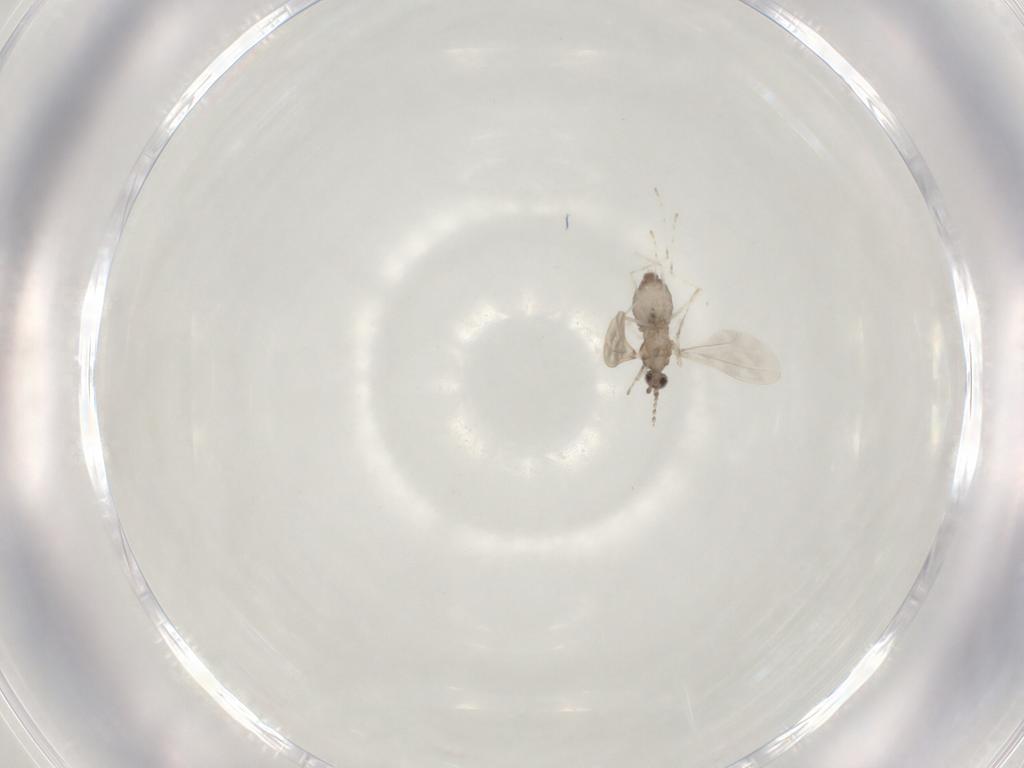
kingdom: Animalia
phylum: Arthropoda
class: Insecta
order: Diptera
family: Cecidomyiidae
